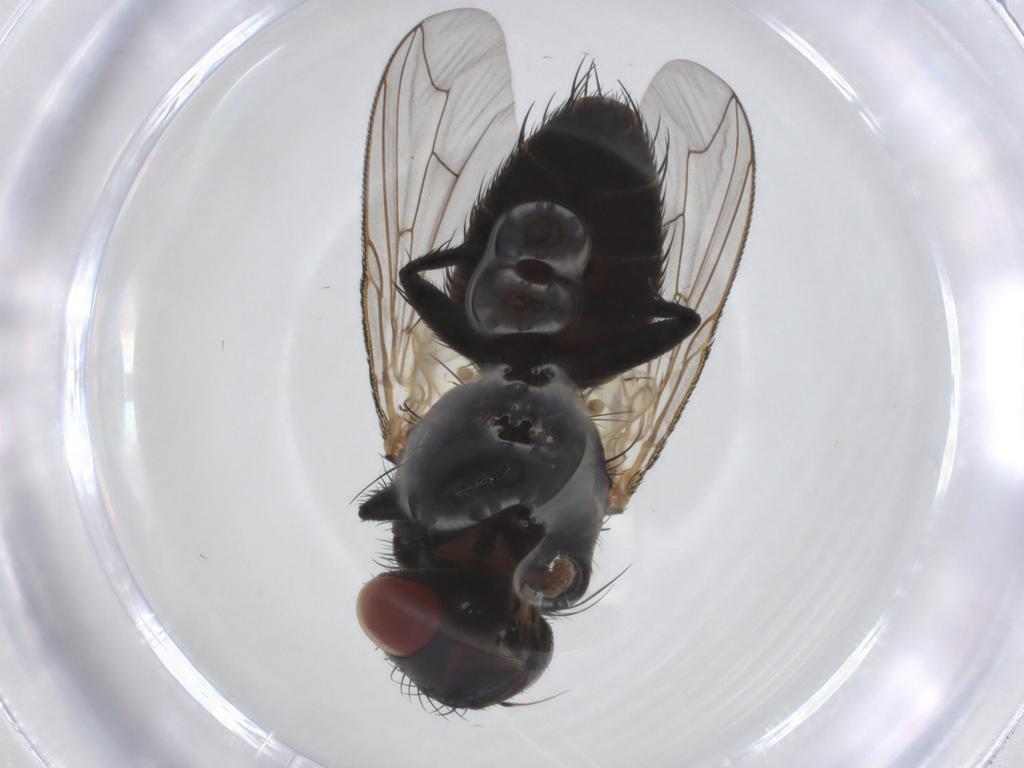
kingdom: Animalia
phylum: Arthropoda
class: Insecta
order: Diptera
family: Sarcophagidae
